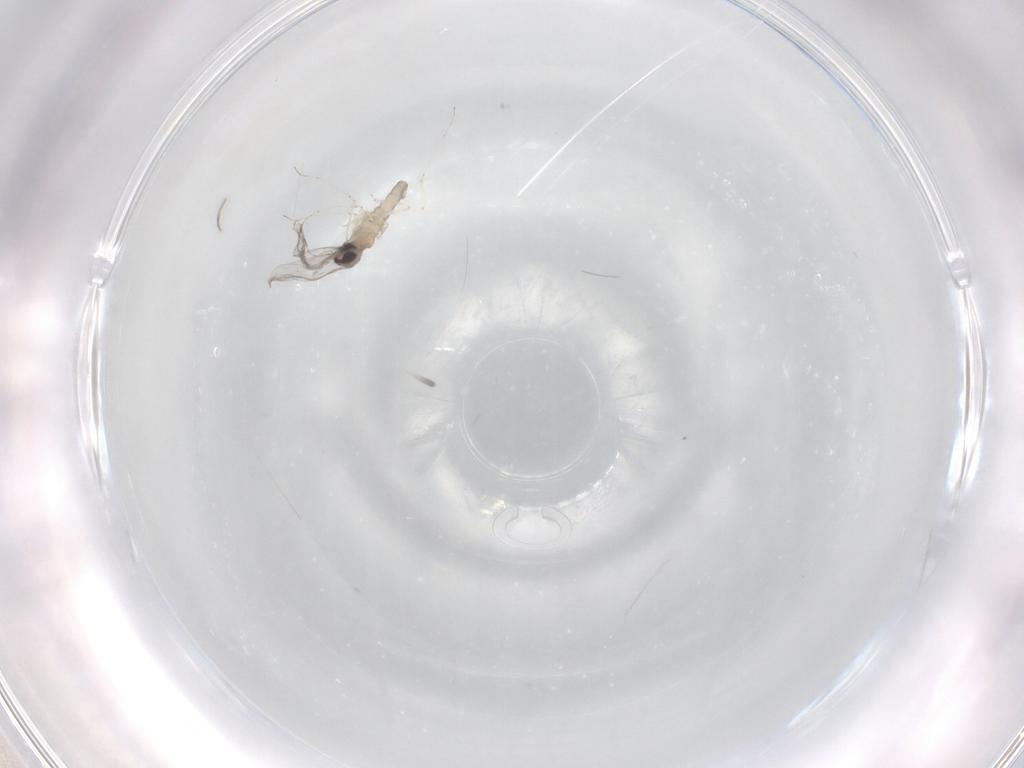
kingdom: Animalia
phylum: Arthropoda
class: Insecta
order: Diptera
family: Cecidomyiidae
